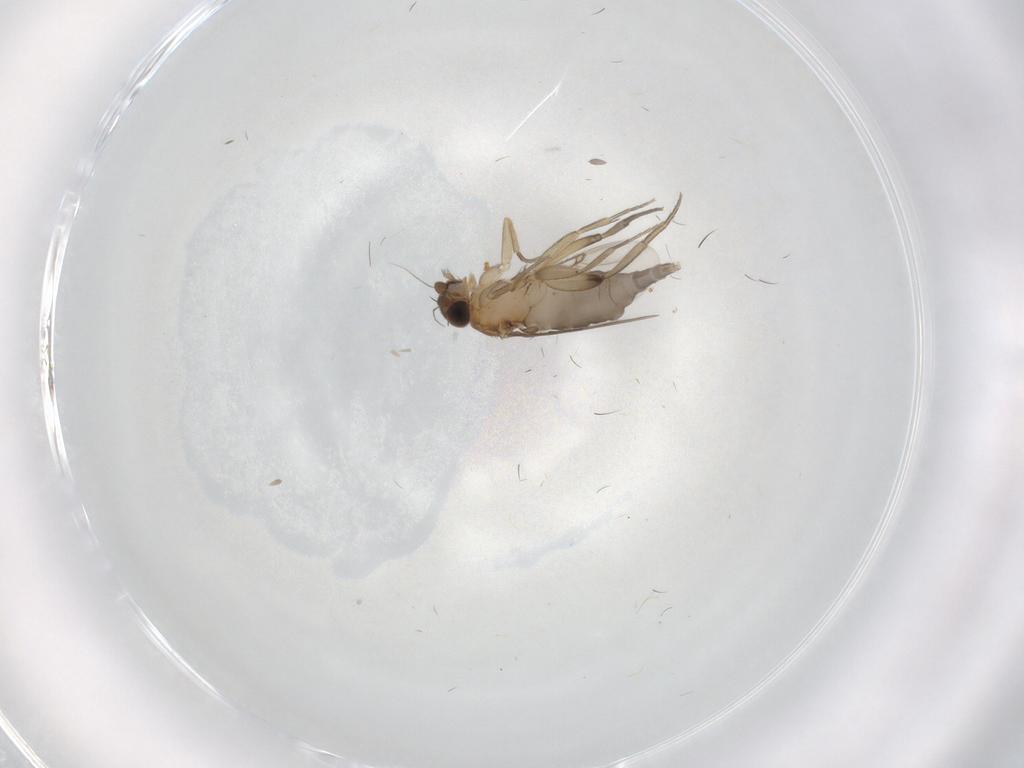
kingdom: Animalia
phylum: Arthropoda
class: Insecta
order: Diptera
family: Phoridae
